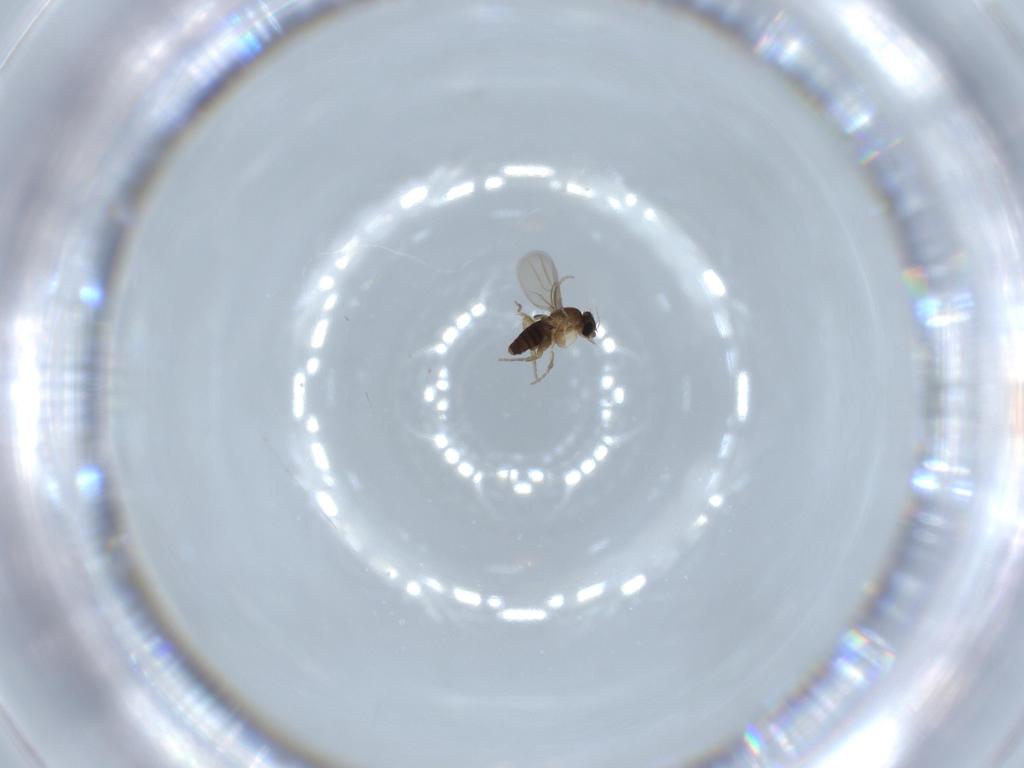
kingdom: Animalia
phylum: Arthropoda
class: Insecta
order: Diptera
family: Phoridae
